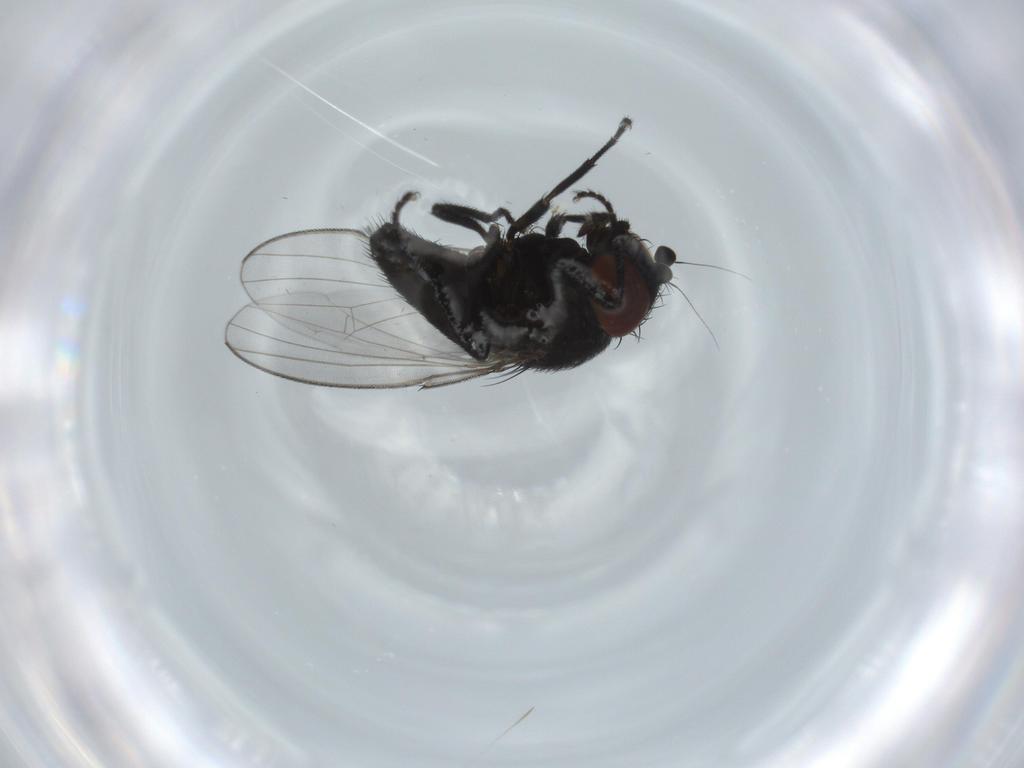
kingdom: Animalia
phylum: Arthropoda
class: Insecta
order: Diptera
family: Milichiidae
